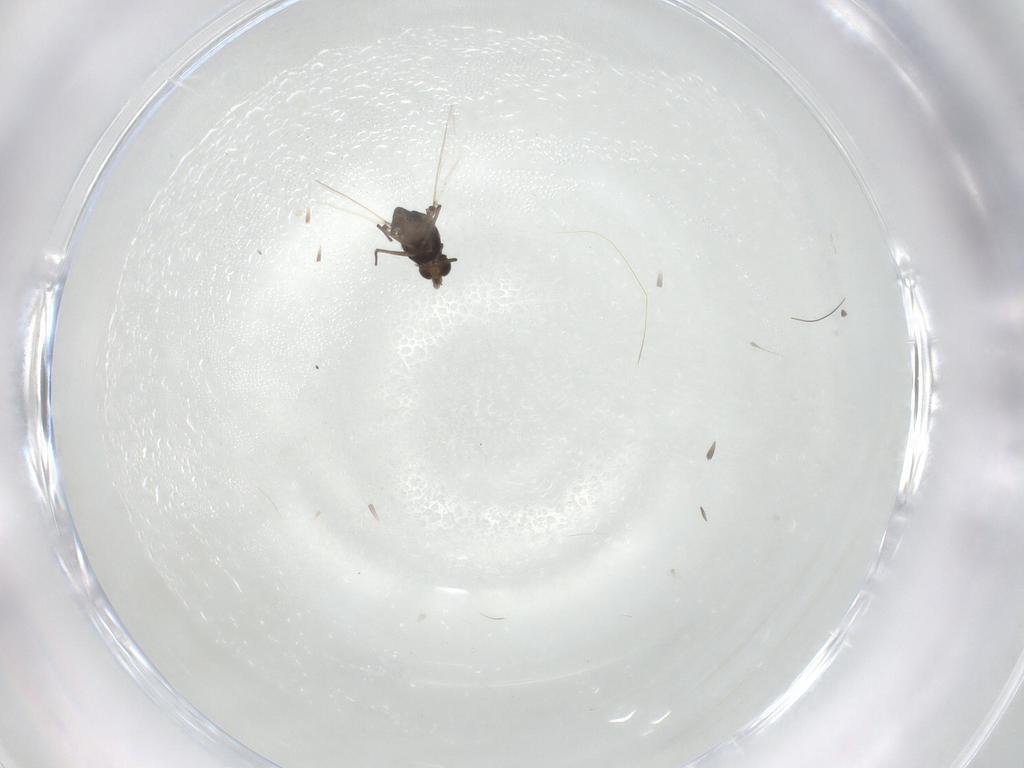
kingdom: Animalia
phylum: Arthropoda
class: Insecta
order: Diptera
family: Chironomidae
